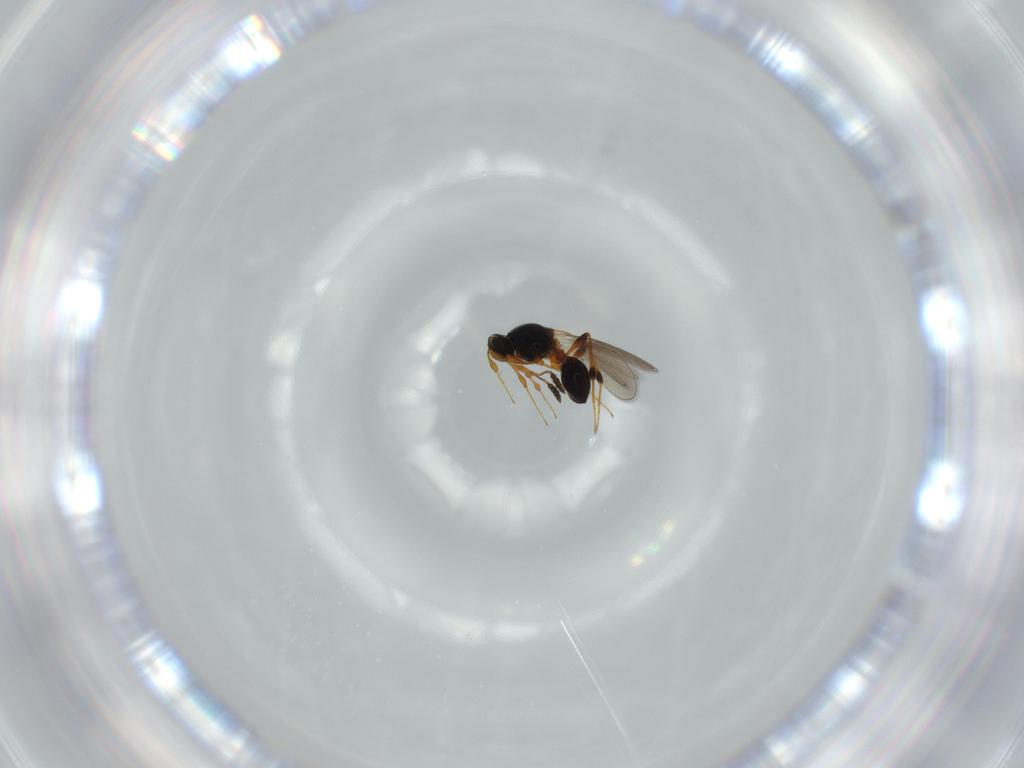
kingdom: Animalia
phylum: Arthropoda
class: Insecta
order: Hymenoptera
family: Platygastridae
